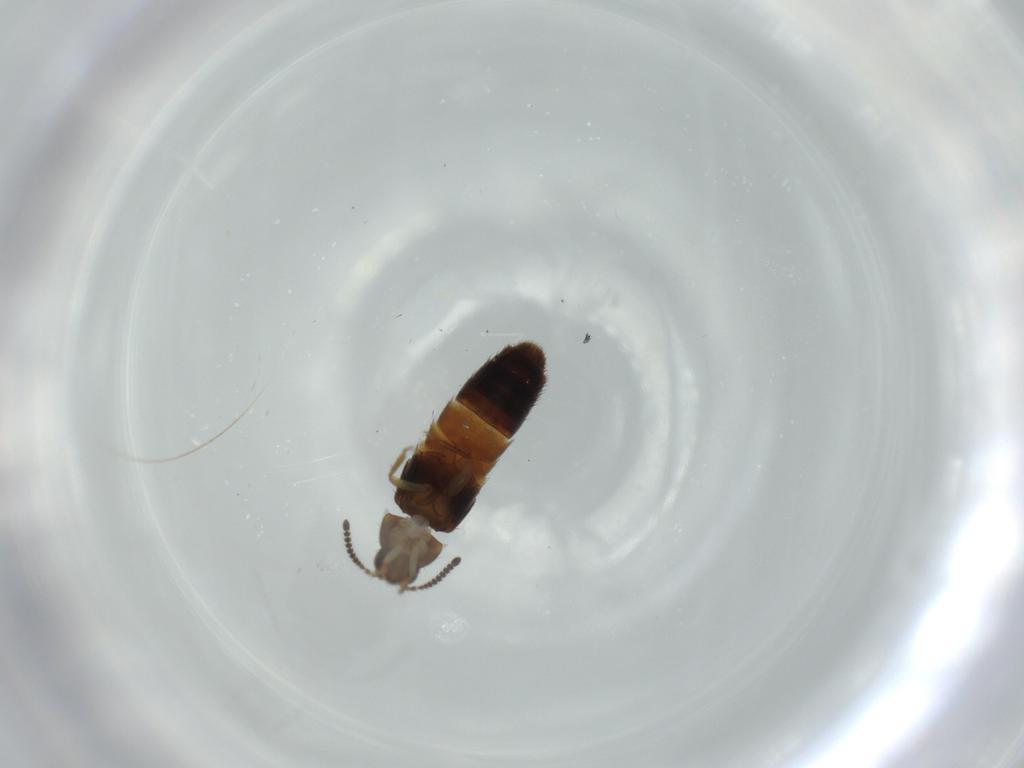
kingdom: Animalia
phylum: Arthropoda
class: Insecta
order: Coleoptera
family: Staphylinidae
